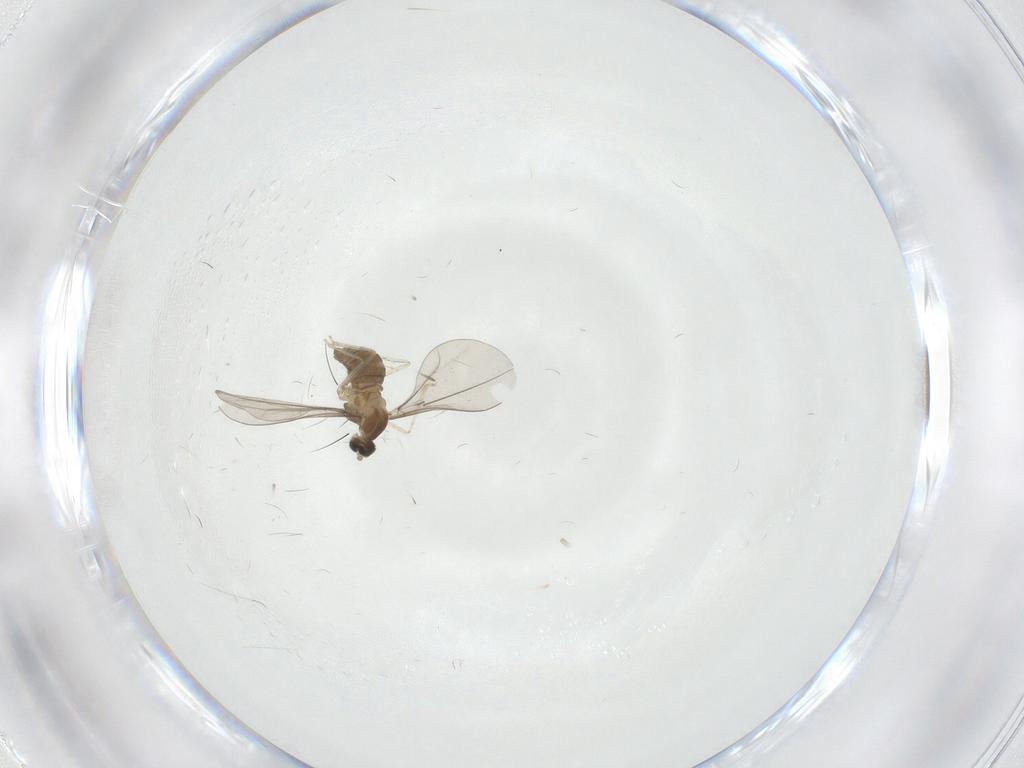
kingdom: Animalia
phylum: Arthropoda
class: Insecta
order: Diptera
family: Cecidomyiidae
